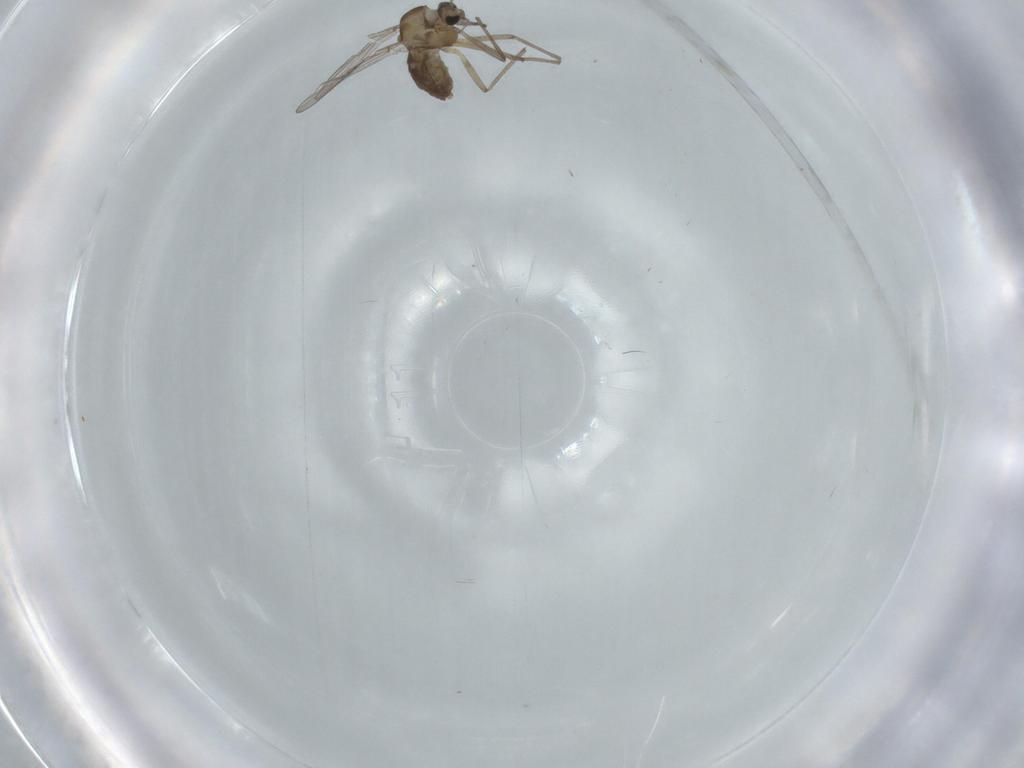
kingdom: Animalia
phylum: Arthropoda
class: Insecta
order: Diptera
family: Chironomidae
